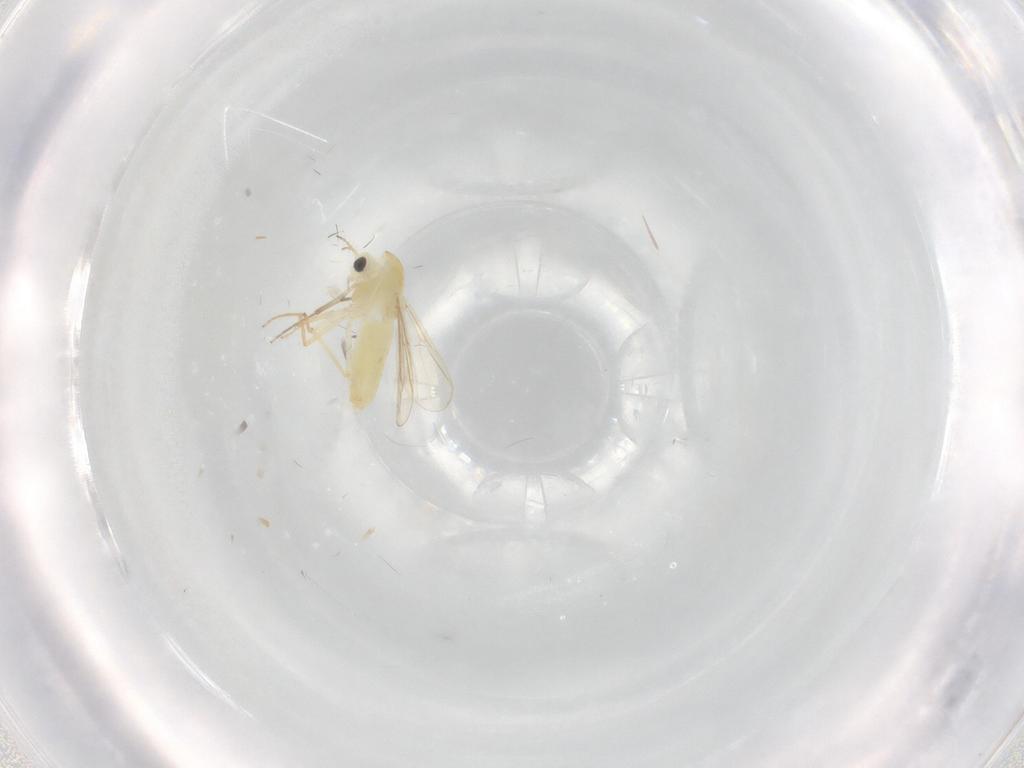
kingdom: Animalia
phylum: Arthropoda
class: Insecta
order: Diptera
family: Chironomidae
